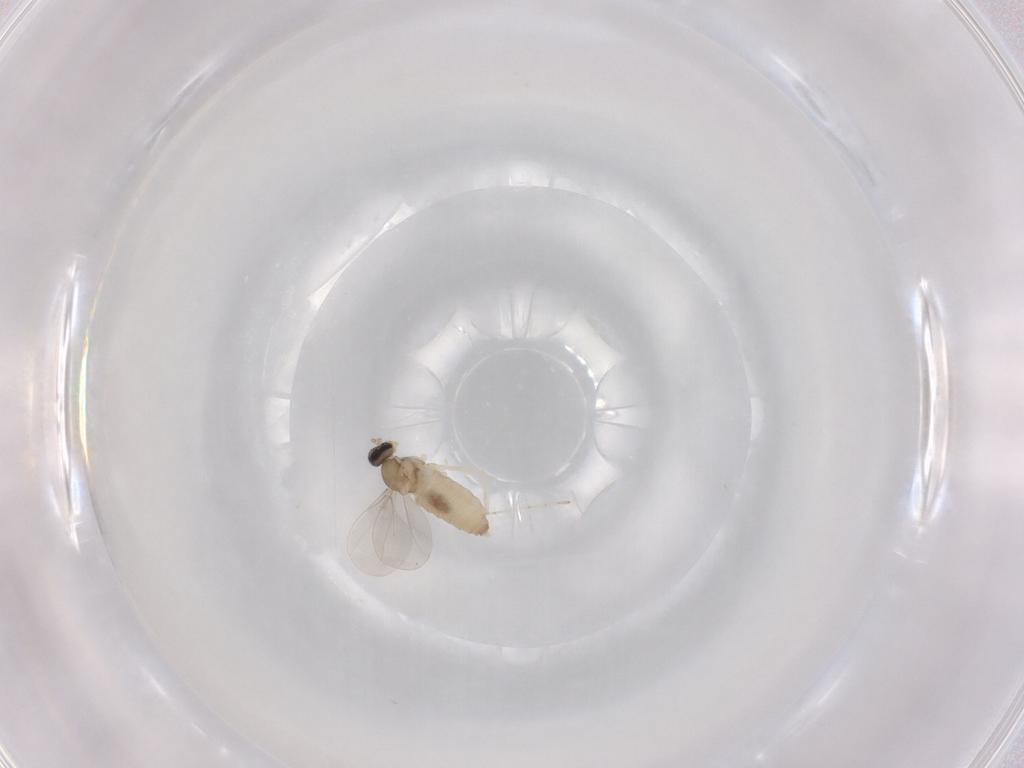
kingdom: Animalia
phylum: Arthropoda
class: Insecta
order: Diptera
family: Cecidomyiidae
